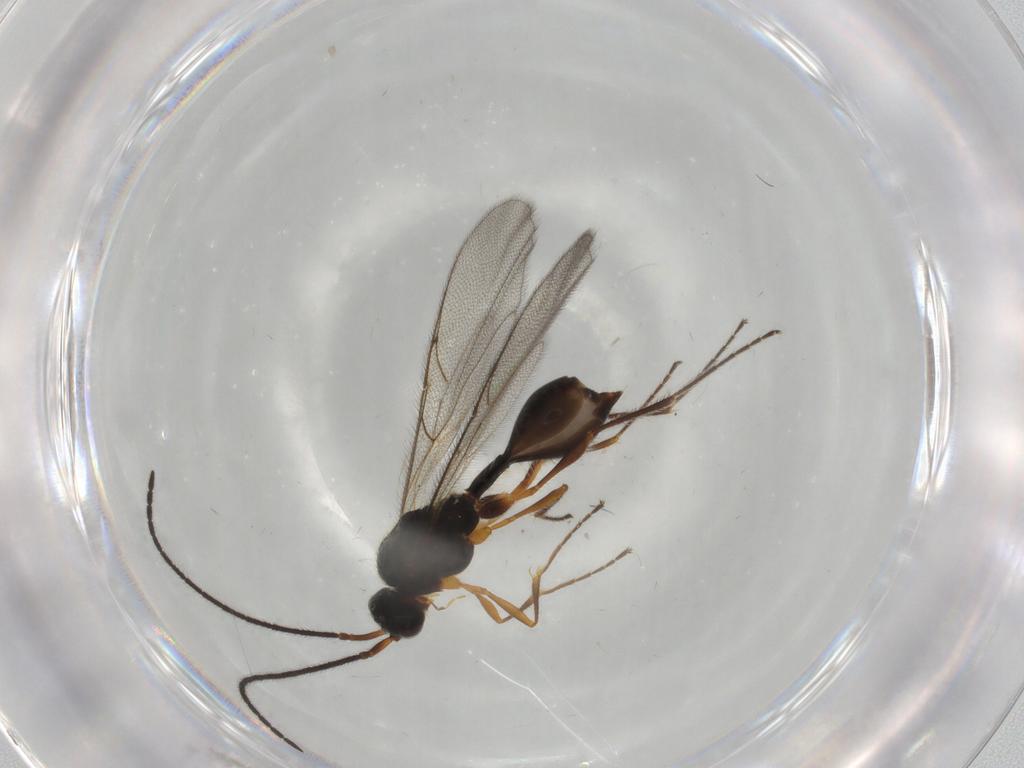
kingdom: Animalia
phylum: Arthropoda
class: Insecta
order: Hymenoptera
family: Diapriidae
